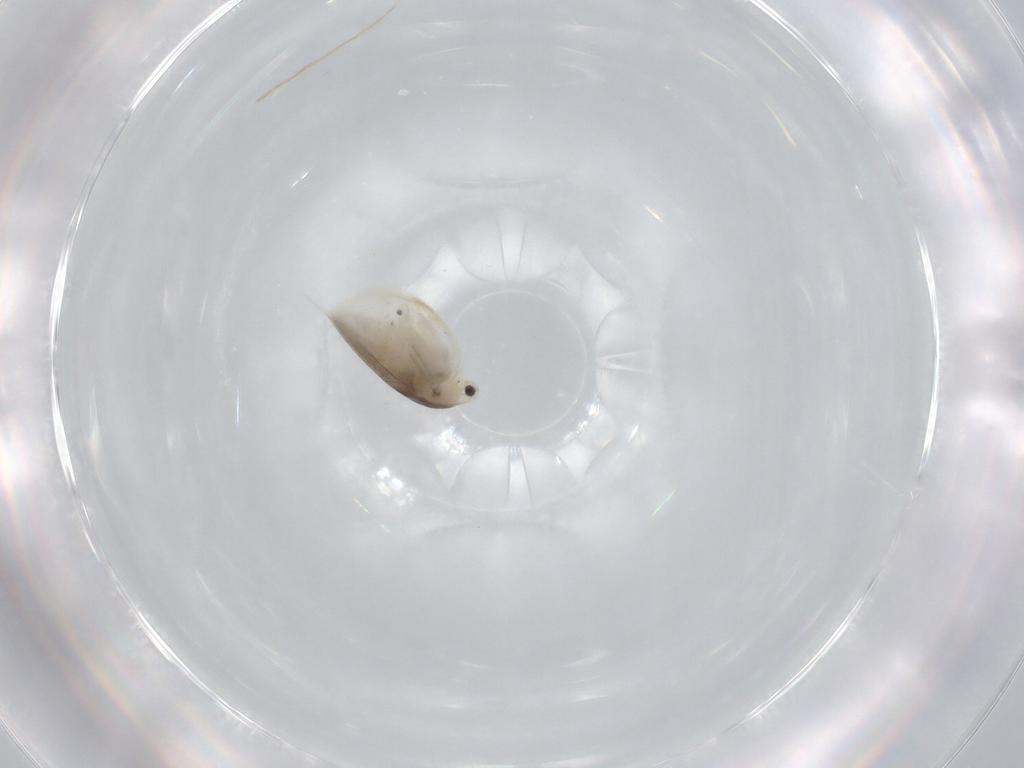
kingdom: Animalia
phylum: Arthropoda
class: Branchiopoda
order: Diplostraca
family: Daphniidae
